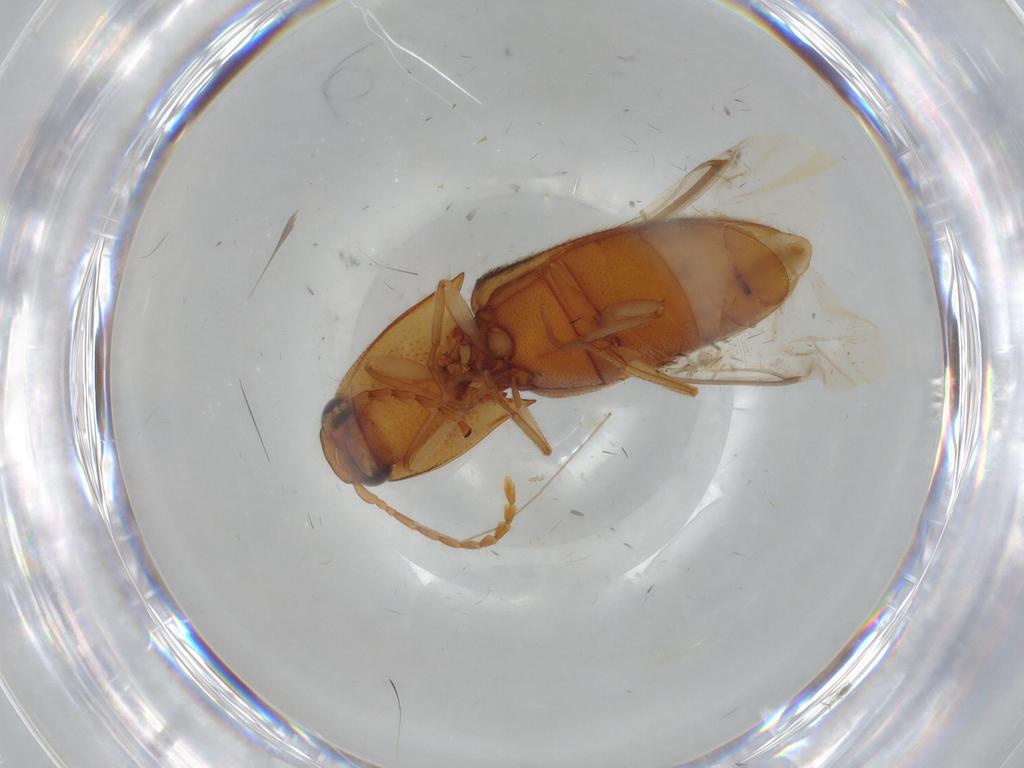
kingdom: Animalia
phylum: Arthropoda
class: Insecta
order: Coleoptera
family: Elateridae
